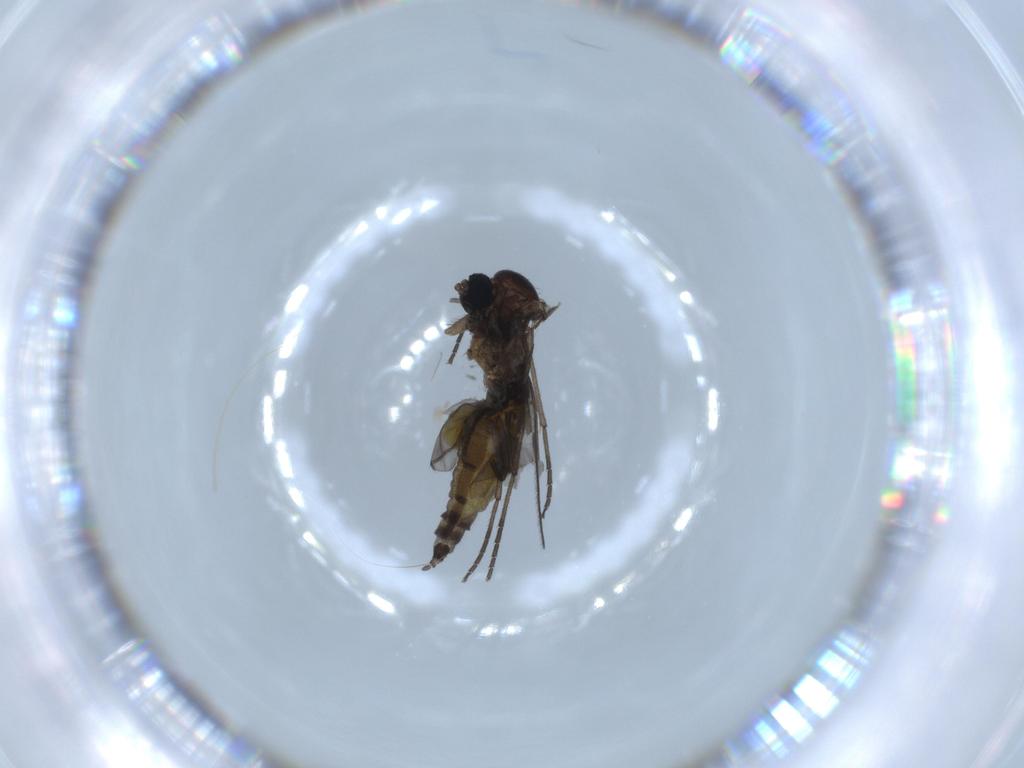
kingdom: Animalia
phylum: Arthropoda
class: Insecta
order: Diptera
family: Sciaridae
